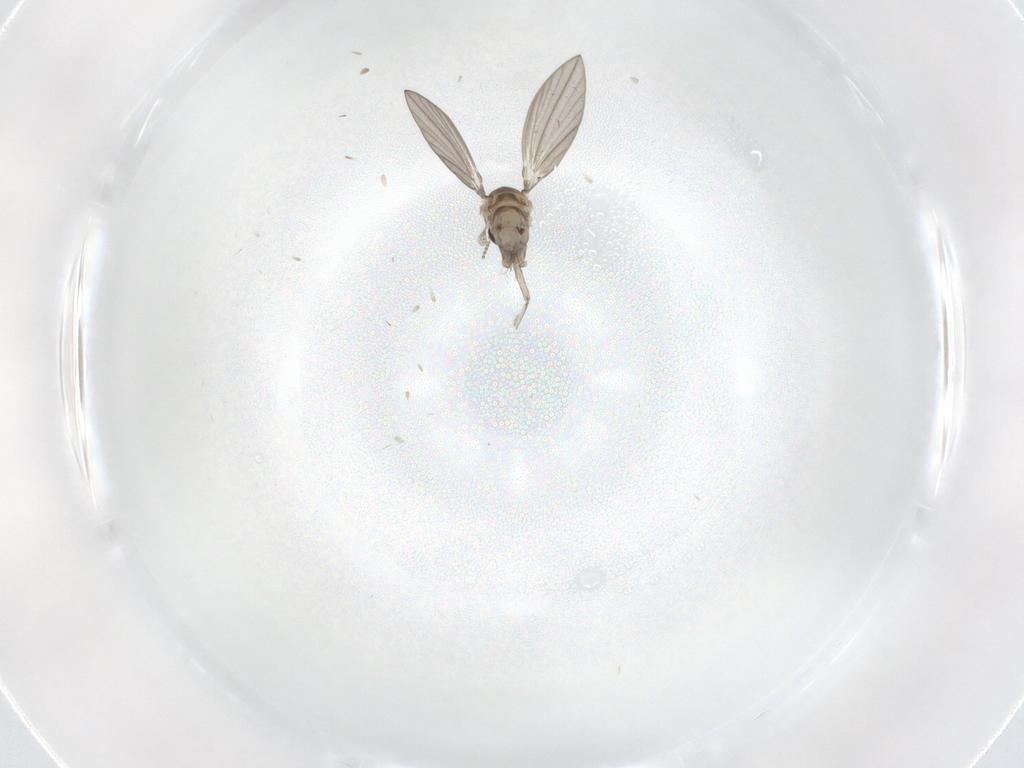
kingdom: Animalia
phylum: Arthropoda
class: Insecta
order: Diptera
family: Psychodidae
